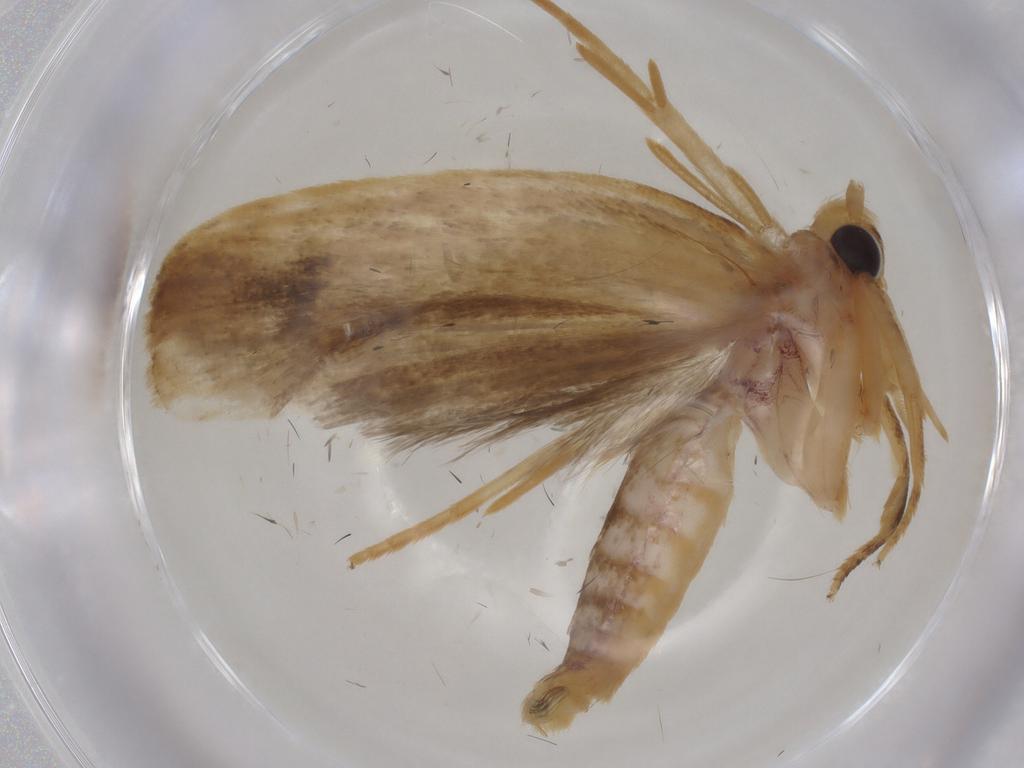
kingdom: Animalia
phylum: Arthropoda
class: Insecta
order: Lepidoptera
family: Depressariidae
